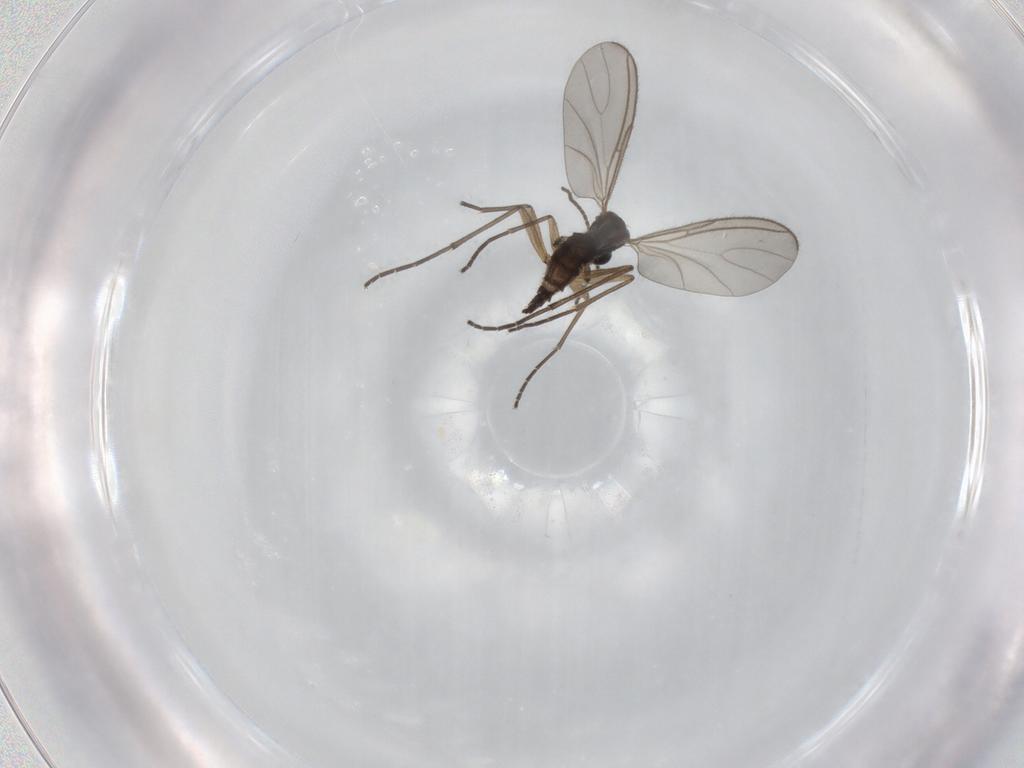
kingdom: Animalia
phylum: Arthropoda
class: Insecta
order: Diptera
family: Sciaridae
